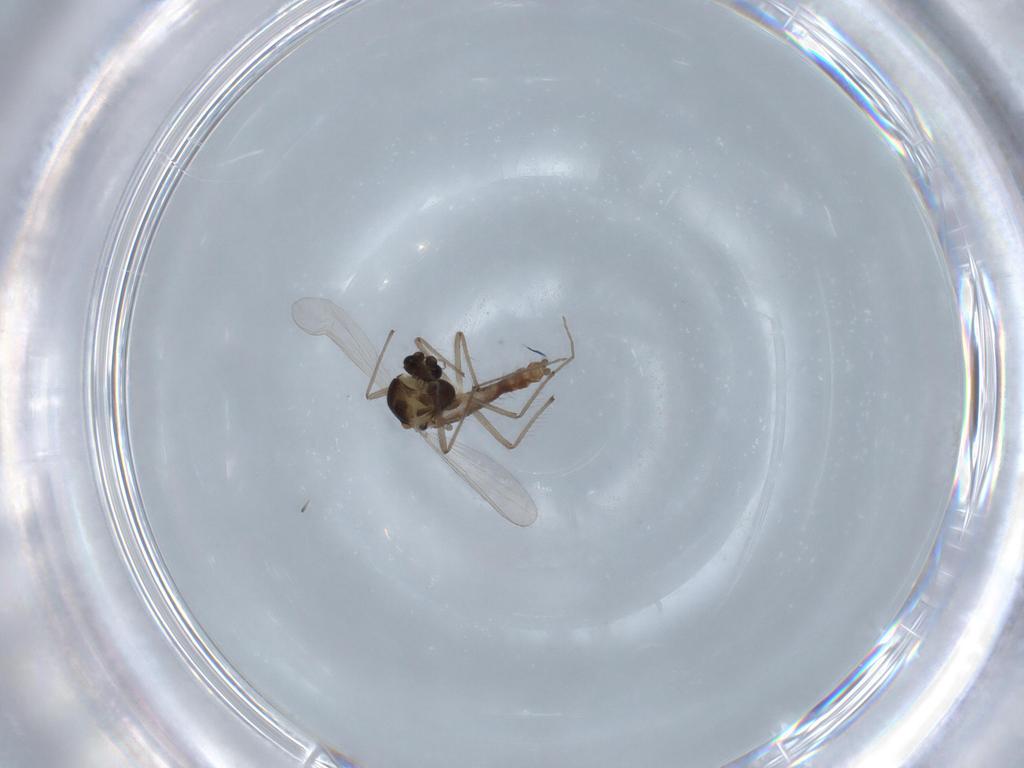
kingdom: Animalia
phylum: Arthropoda
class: Insecta
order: Diptera
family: Chironomidae
